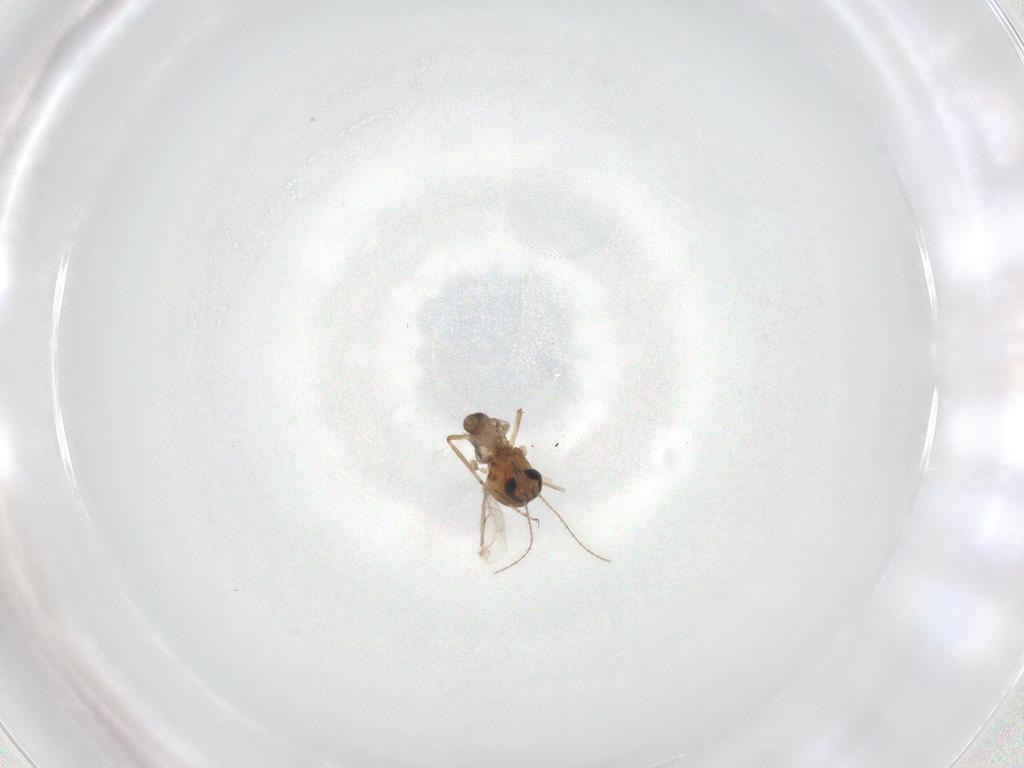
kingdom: Animalia
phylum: Arthropoda
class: Insecta
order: Diptera
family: Ceratopogonidae
